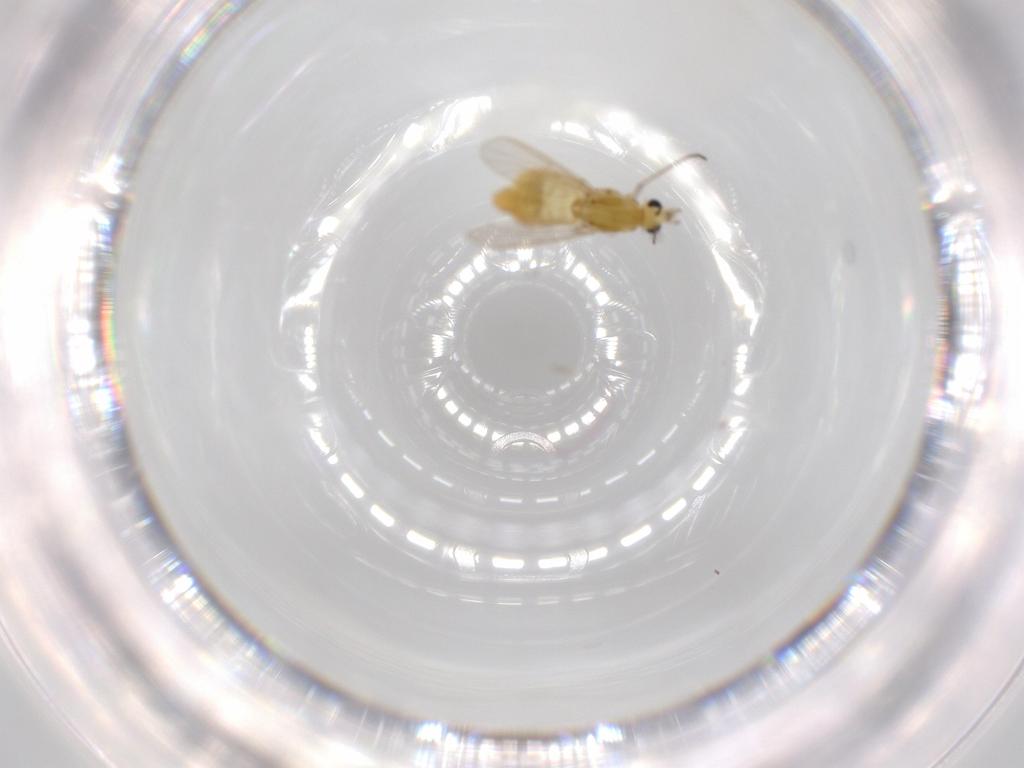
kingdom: Animalia
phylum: Arthropoda
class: Insecta
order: Diptera
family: Chironomidae
